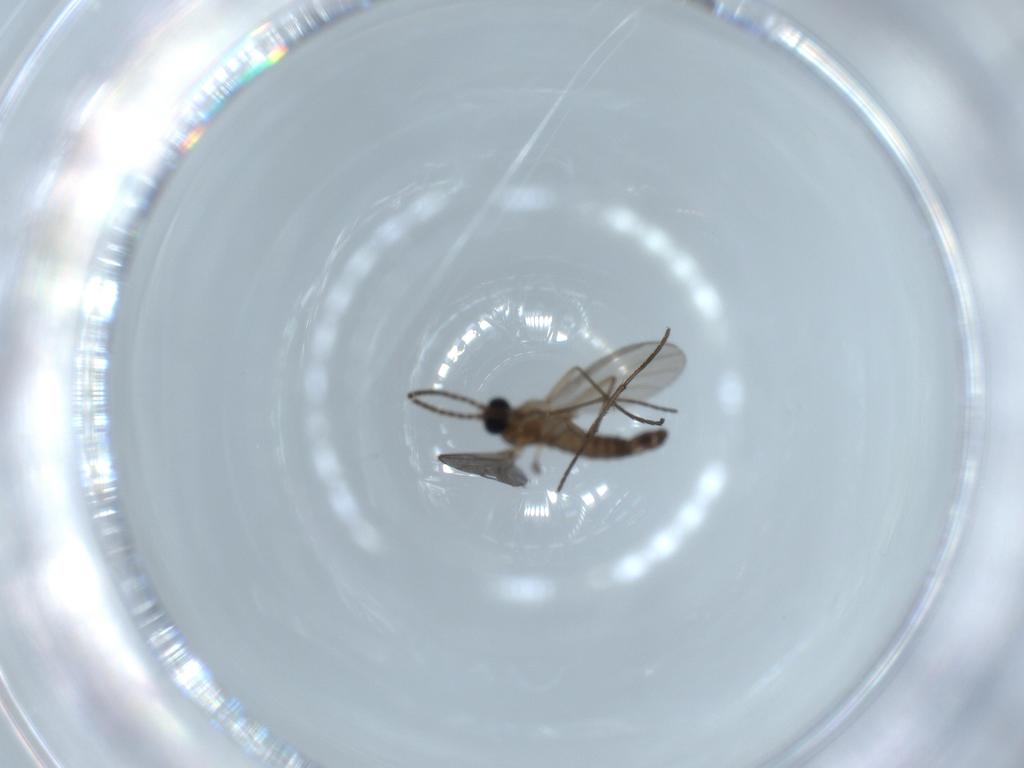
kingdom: Animalia
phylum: Arthropoda
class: Insecta
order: Diptera
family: Sciaridae
